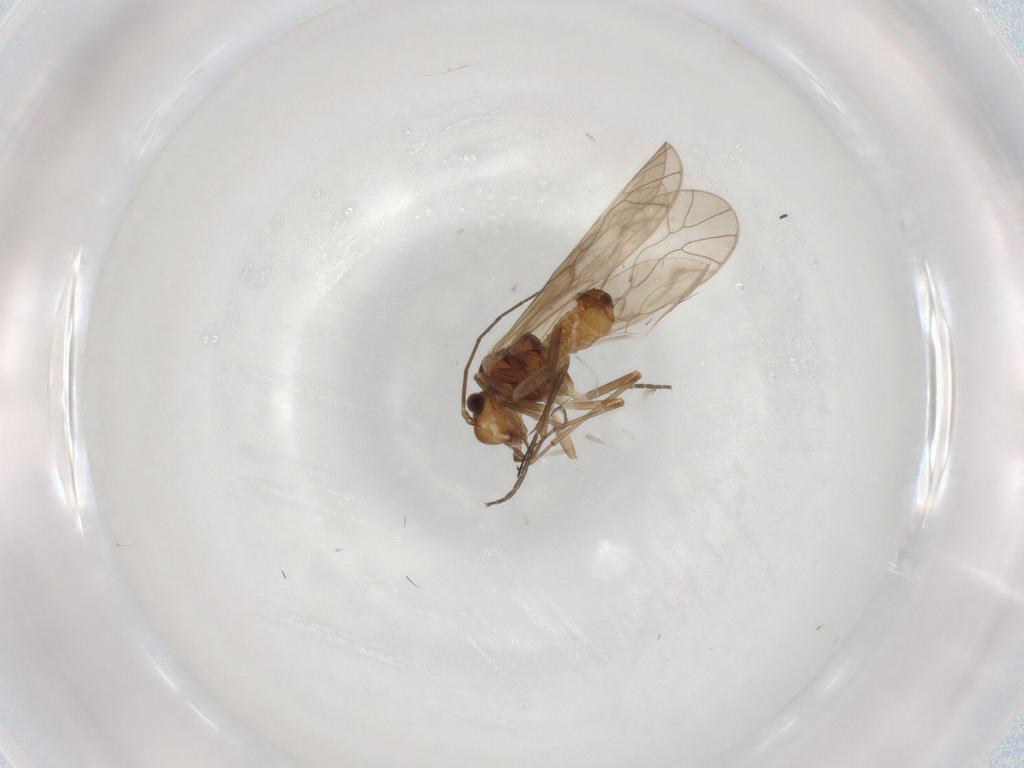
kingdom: Animalia
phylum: Arthropoda
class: Insecta
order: Psocodea
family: Philotarsidae
